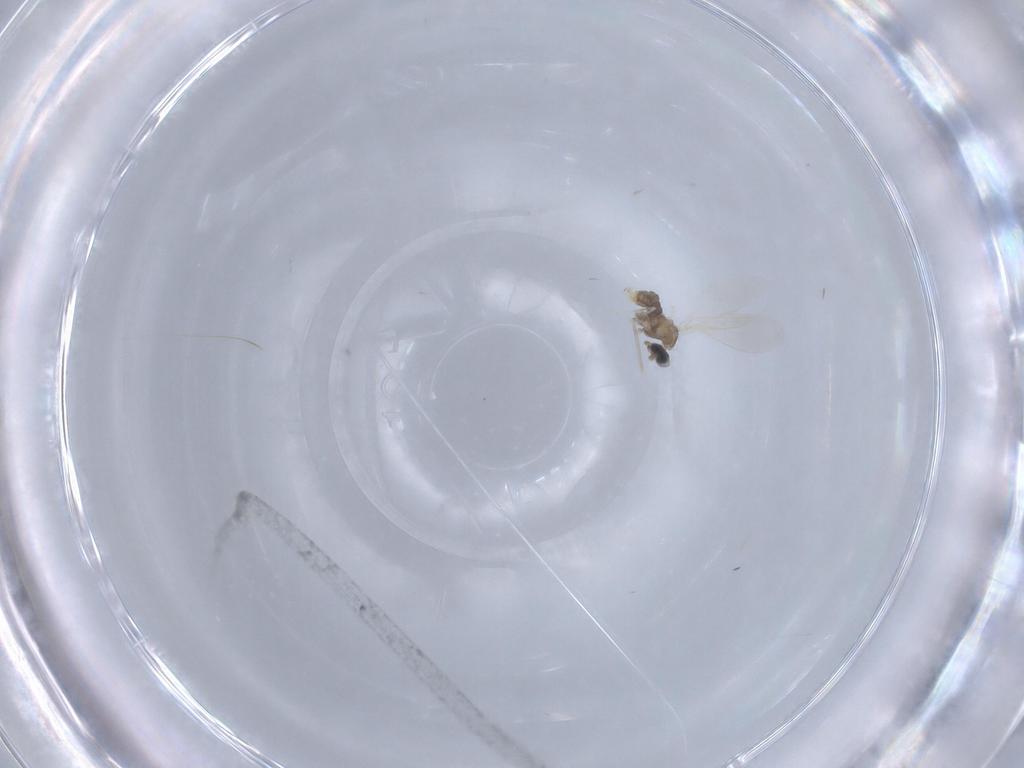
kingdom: Animalia
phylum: Arthropoda
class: Insecta
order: Diptera
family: Cecidomyiidae
